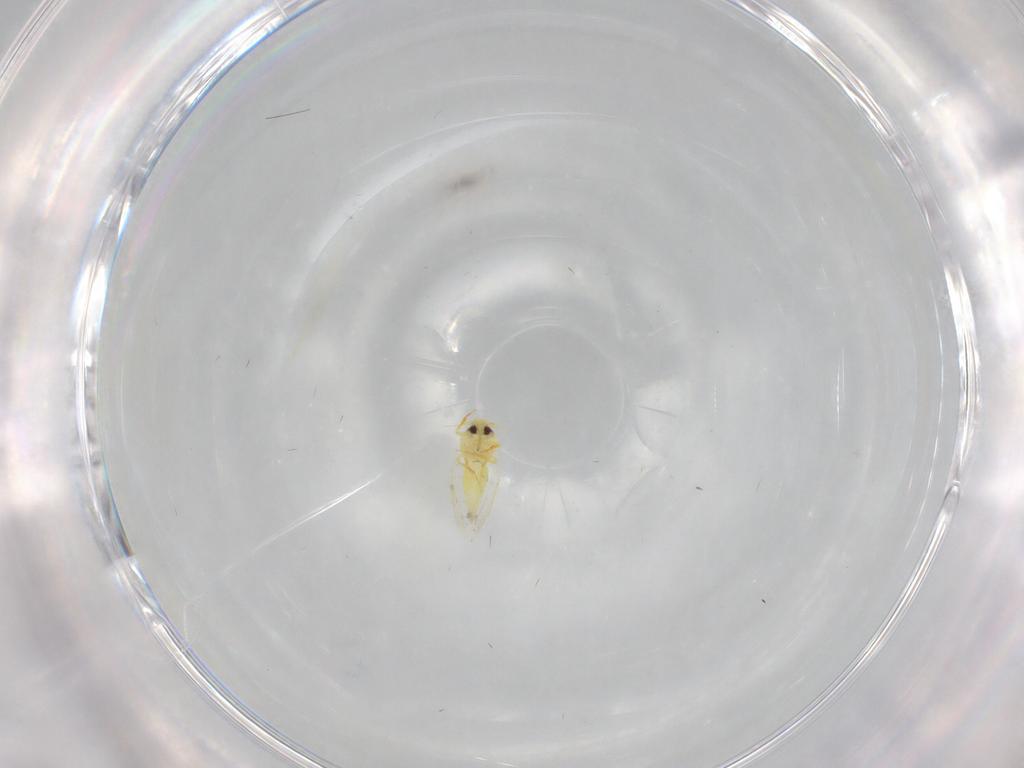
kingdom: Animalia
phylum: Arthropoda
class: Insecta
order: Hemiptera
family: Aleyrodidae
